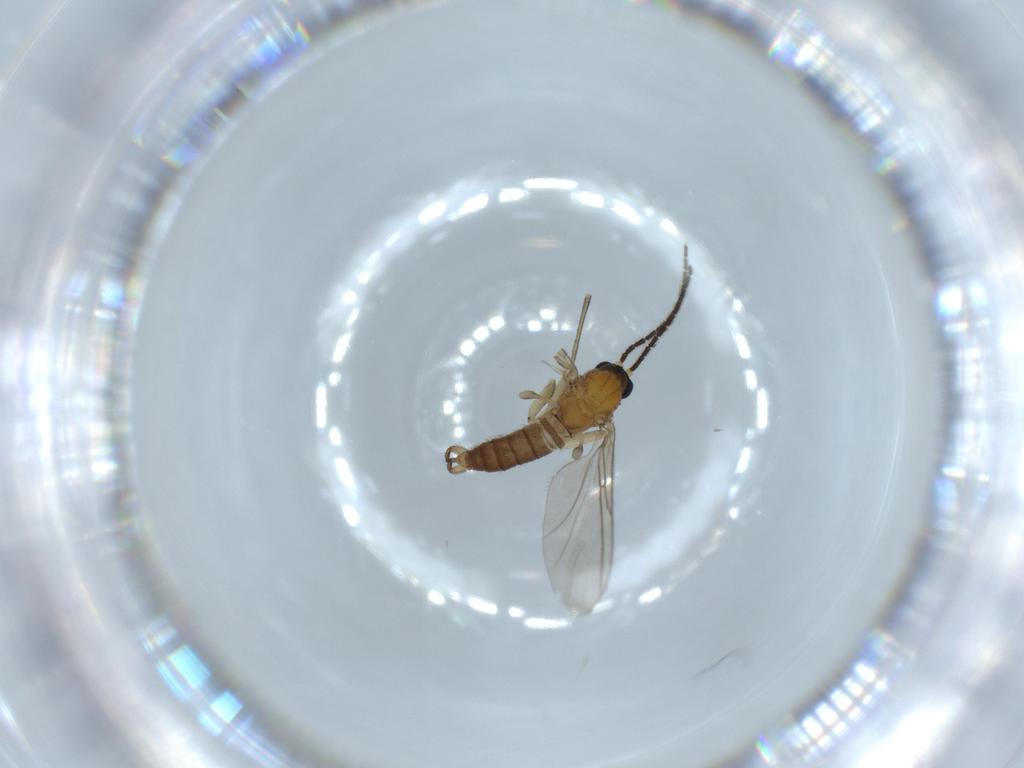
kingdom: Animalia
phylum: Arthropoda
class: Insecta
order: Diptera
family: Sciaridae
